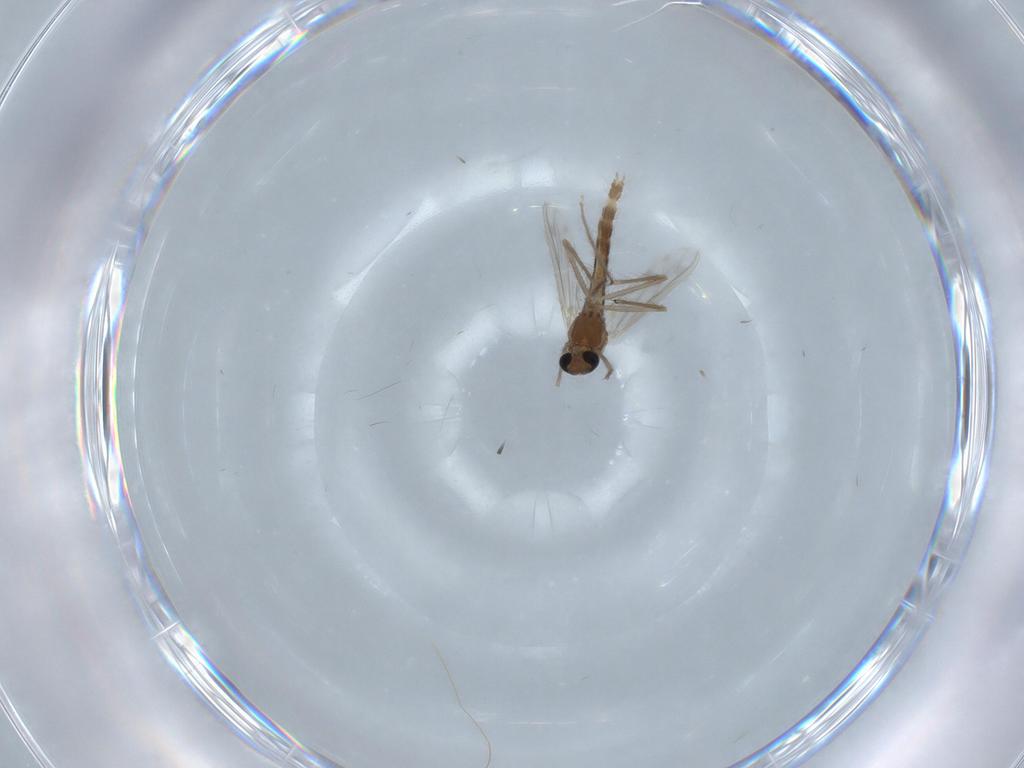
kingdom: Animalia
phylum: Arthropoda
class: Insecta
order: Diptera
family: Chironomidae
